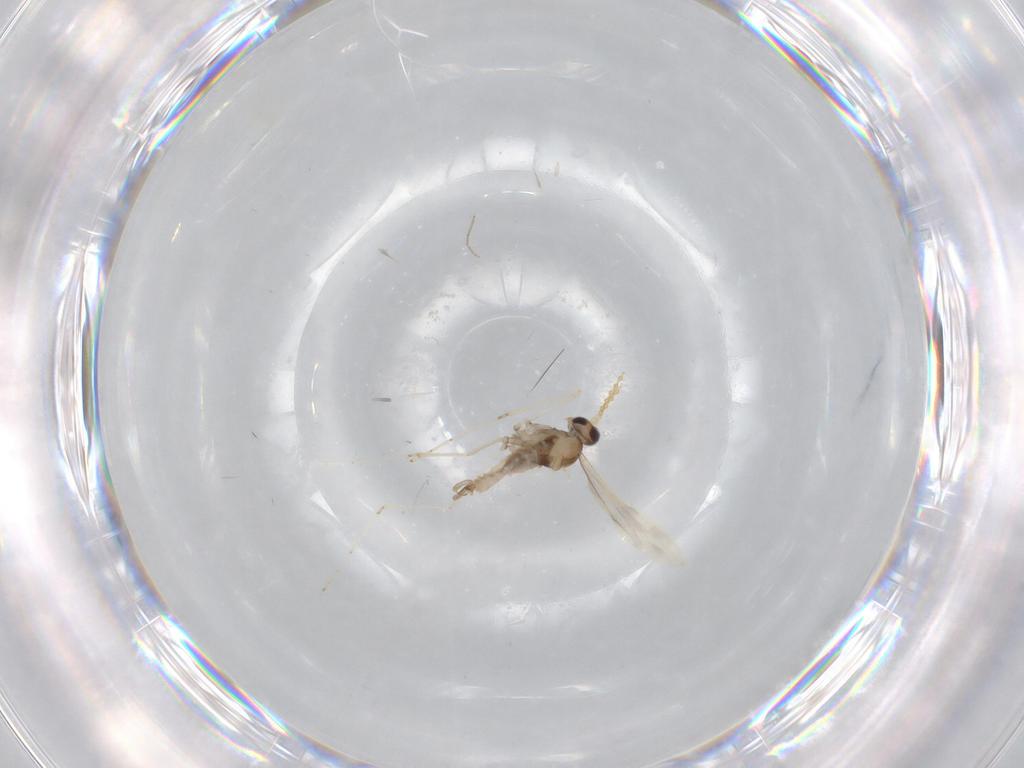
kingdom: Animalia
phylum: Arthropoda
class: Insecta
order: Diptera
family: Cecidomyiidae
